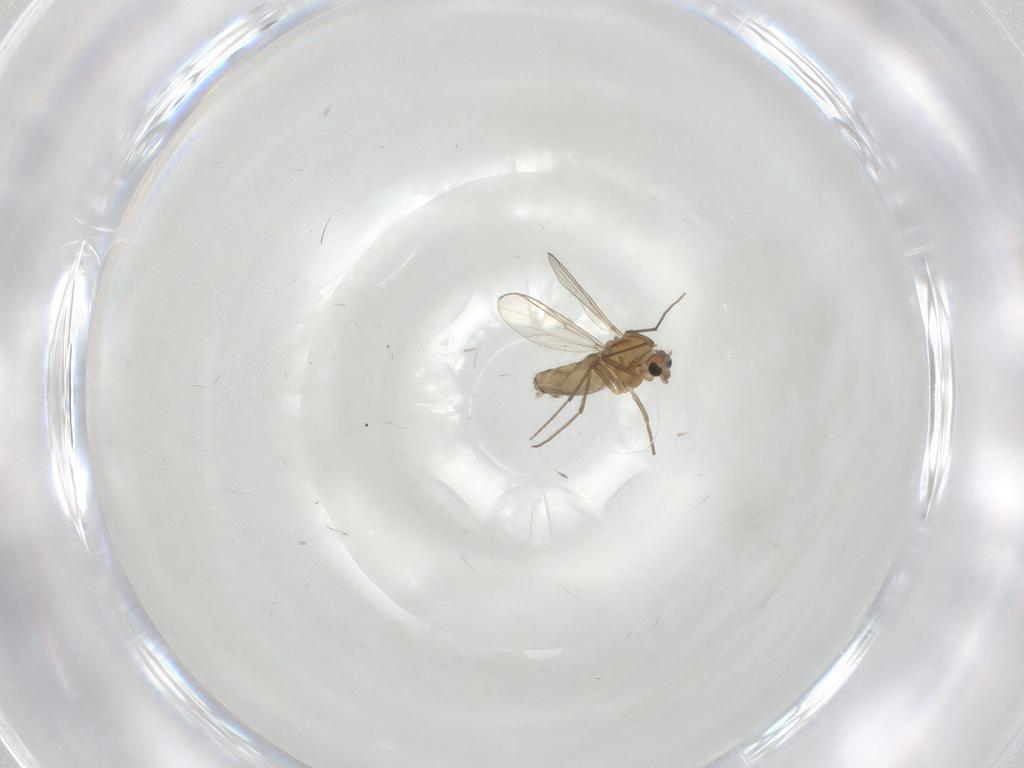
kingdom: Animalia
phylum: Arthropoda
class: Insecta
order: Diptera
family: Chironomidae
